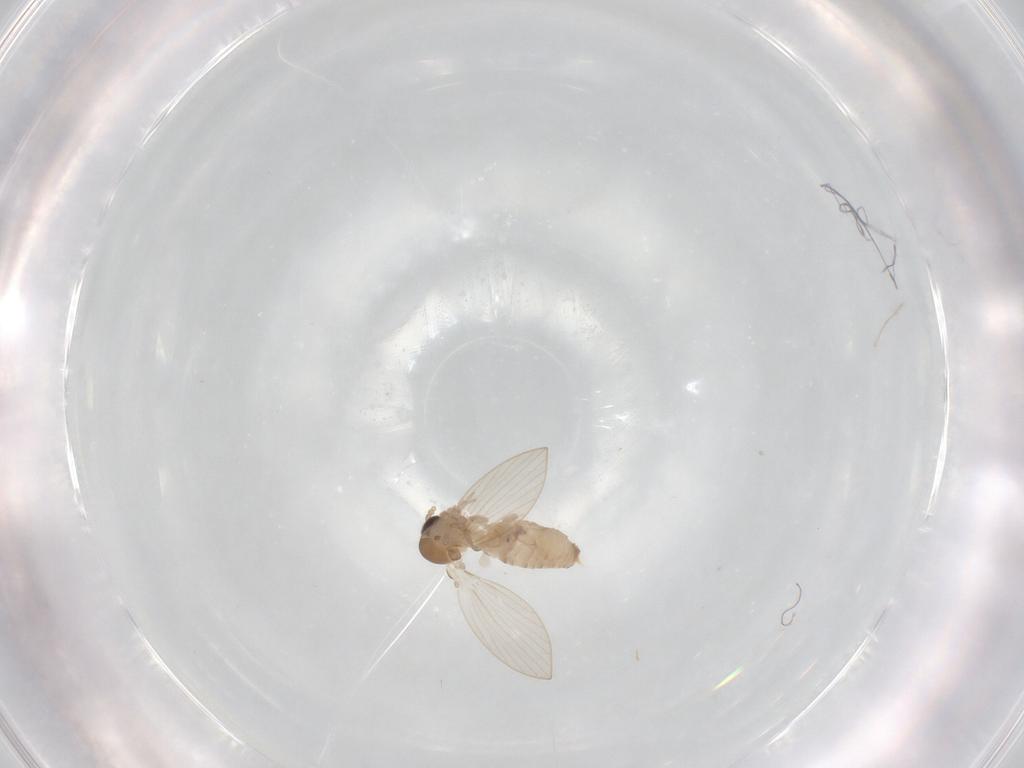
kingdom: Animalia
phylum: Arthropoda
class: Insecta
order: Diptera
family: Psychodidae
